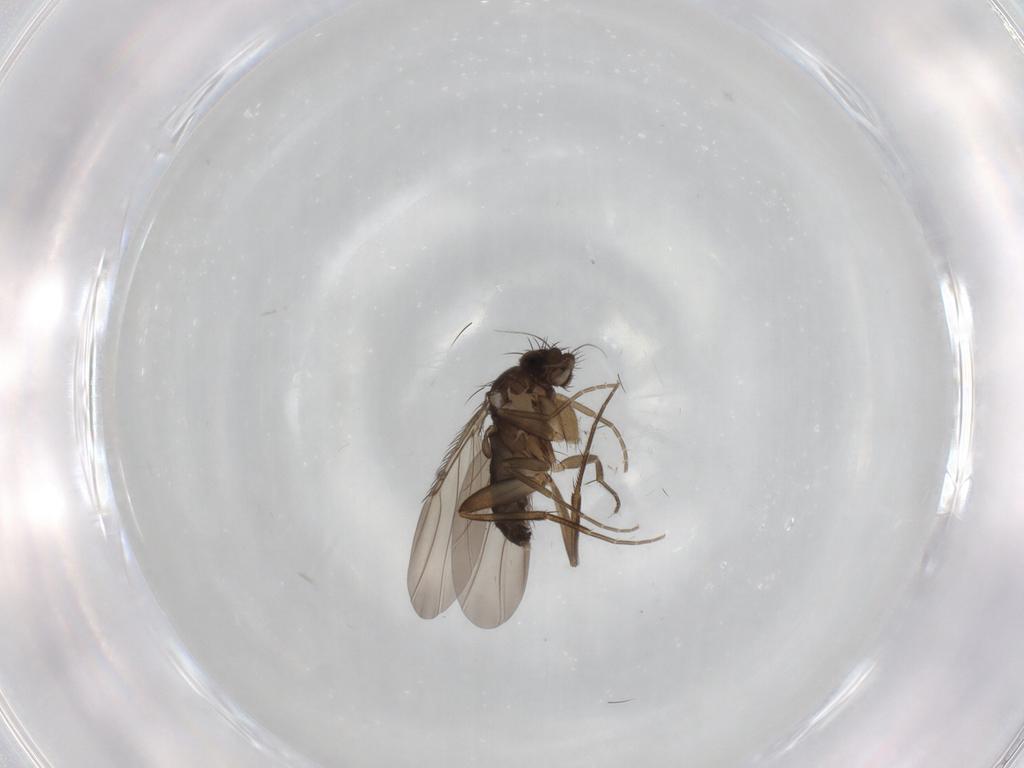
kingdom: Animalia
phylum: Arthropoda
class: Insecta
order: Diptera
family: Phoridae
